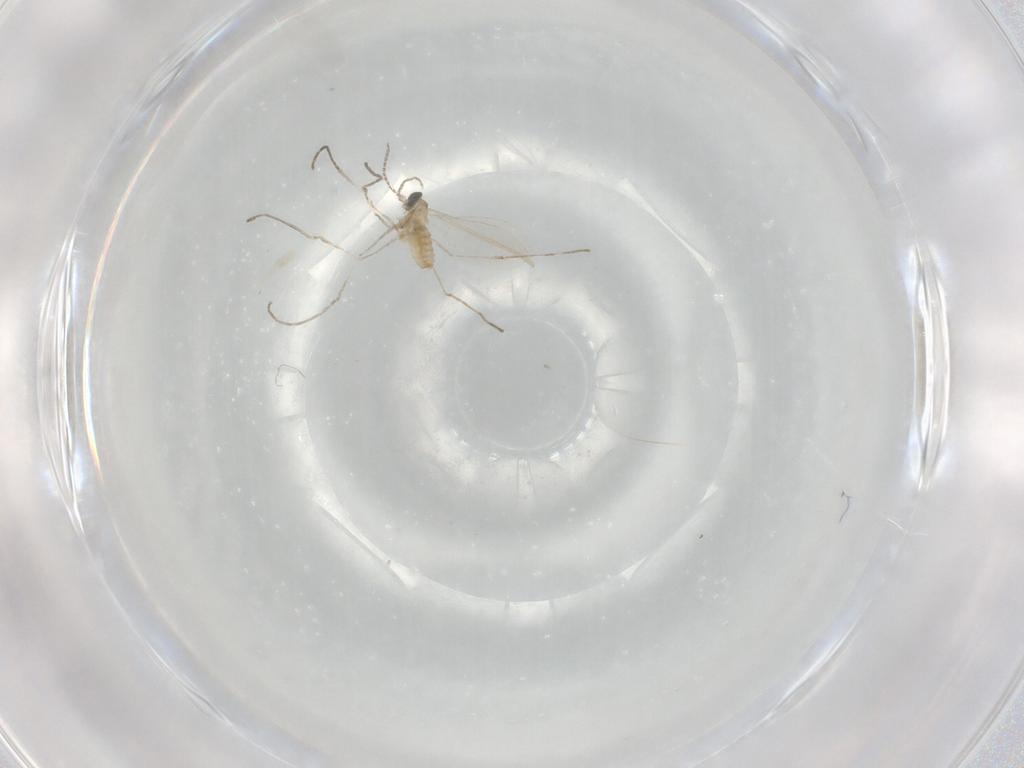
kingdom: Animalia
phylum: Arthropoda
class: Insecta
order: Diptera
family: Cecidomyiidae
